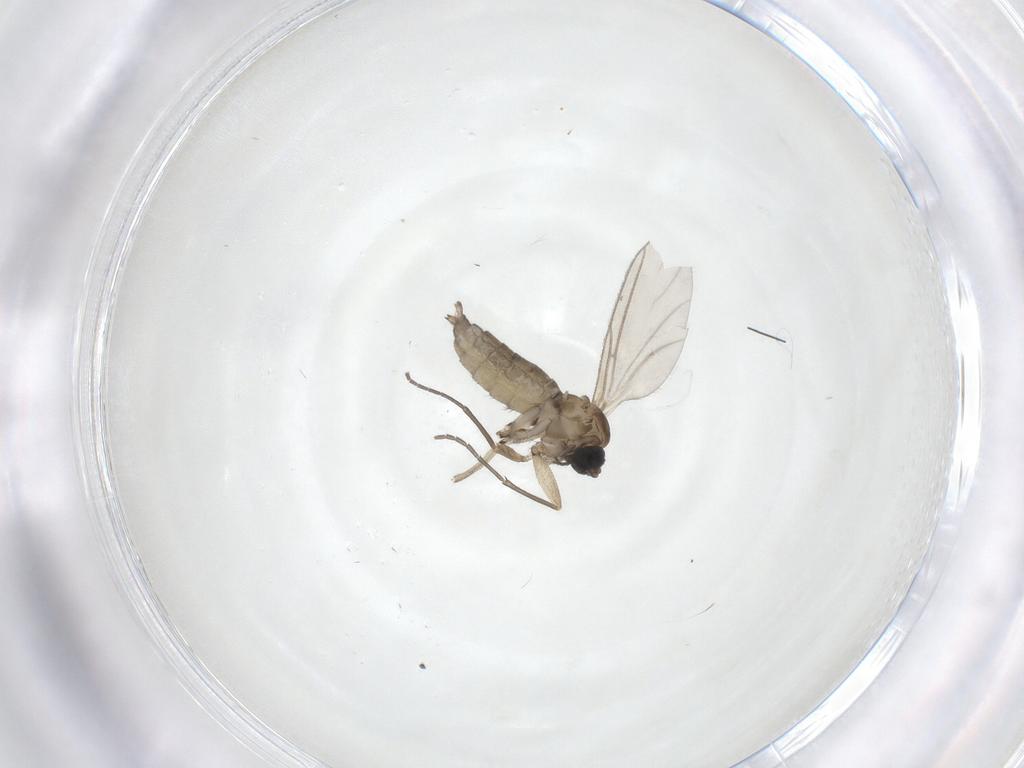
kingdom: Animalia
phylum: Arthropoda
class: Insecta
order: Diptera
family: Sciaridae
